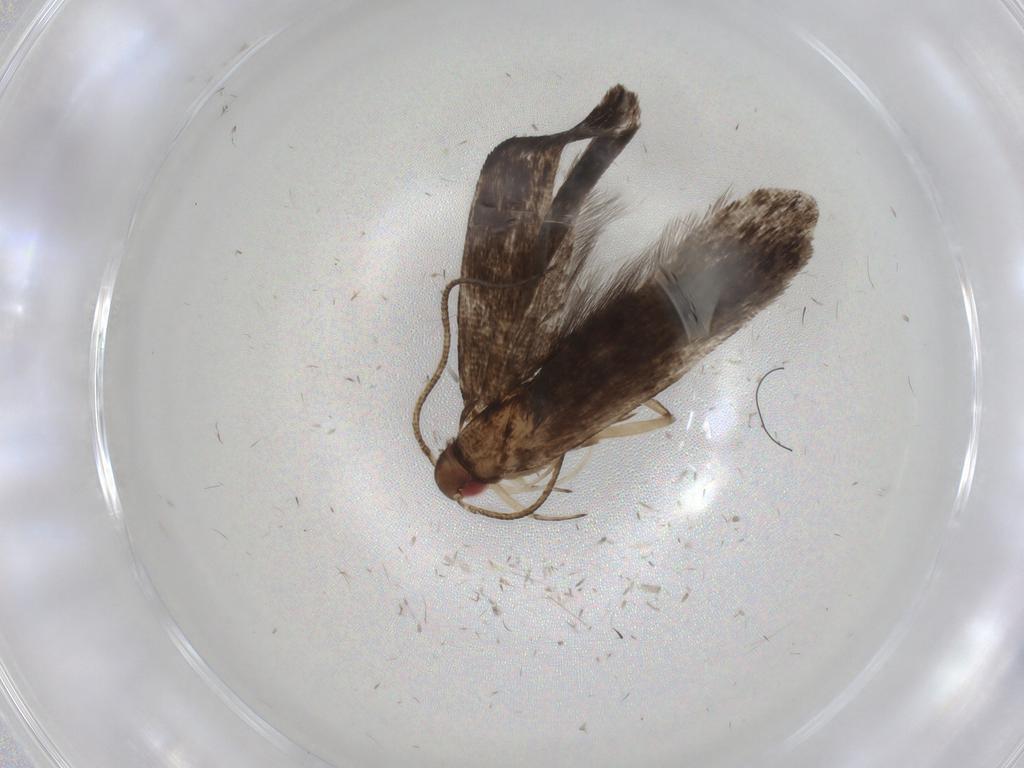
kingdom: Animalia
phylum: Arthropoda
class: Insecta
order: Lepidoptera
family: Gelechiidae
